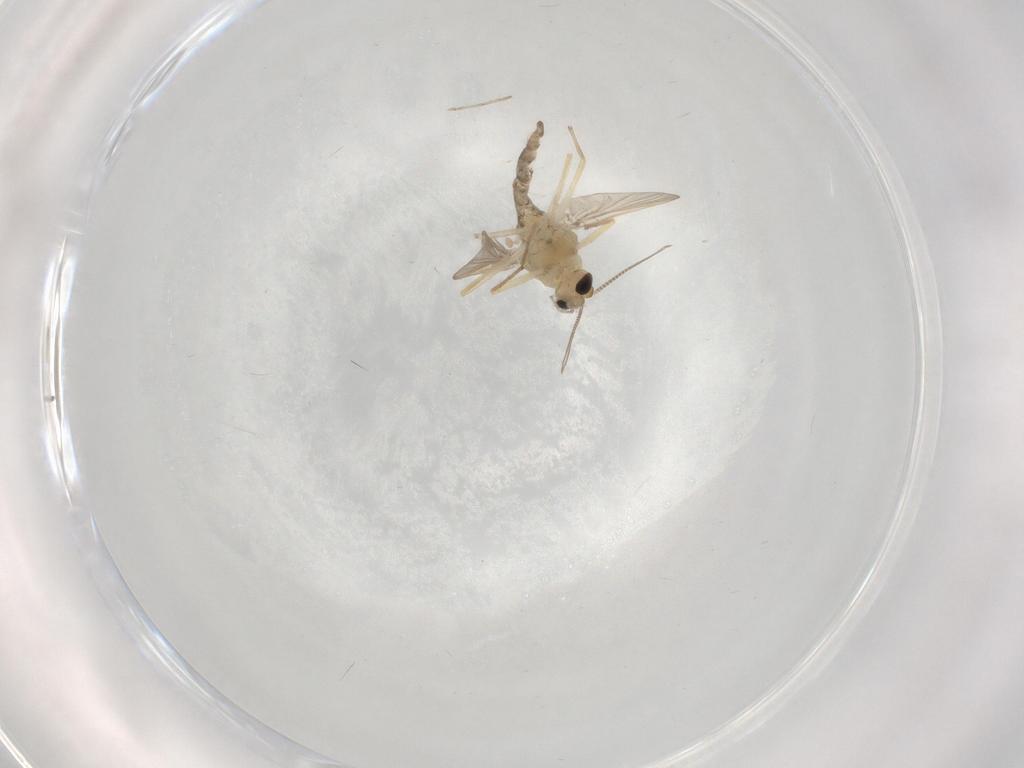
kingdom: Animalia
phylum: Arthropoda
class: Insecta
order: Diptera
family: Chironomidae
